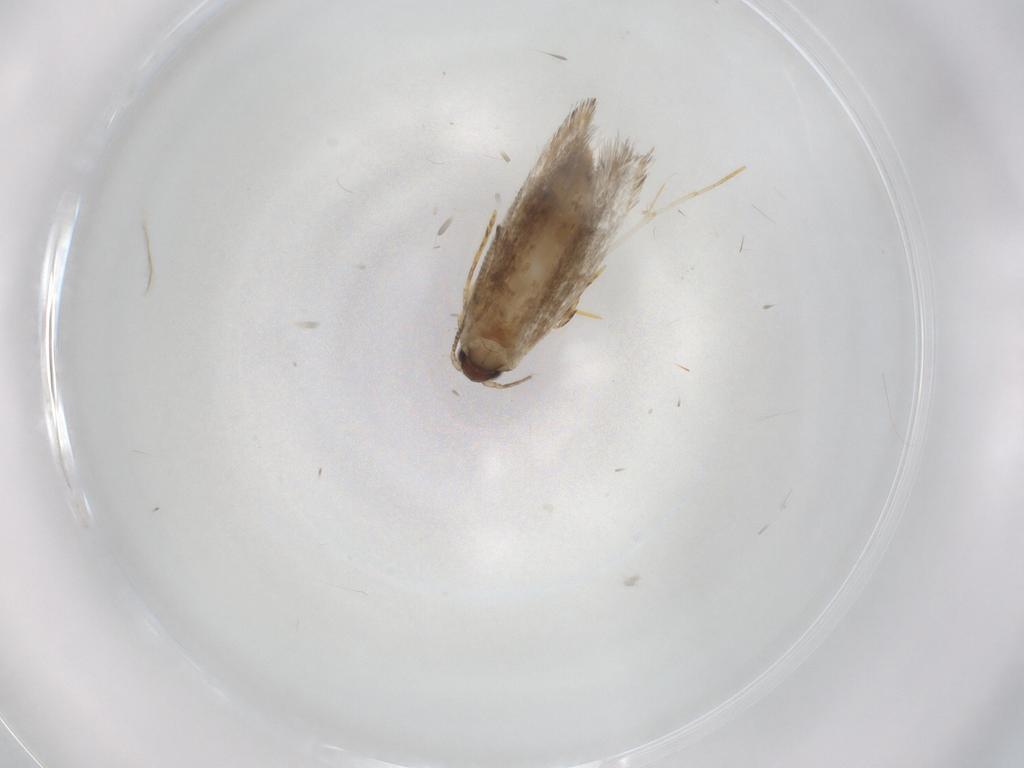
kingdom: Animalia
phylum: Arthropoda
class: Insecta
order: Lepidoptera
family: Tineidae
